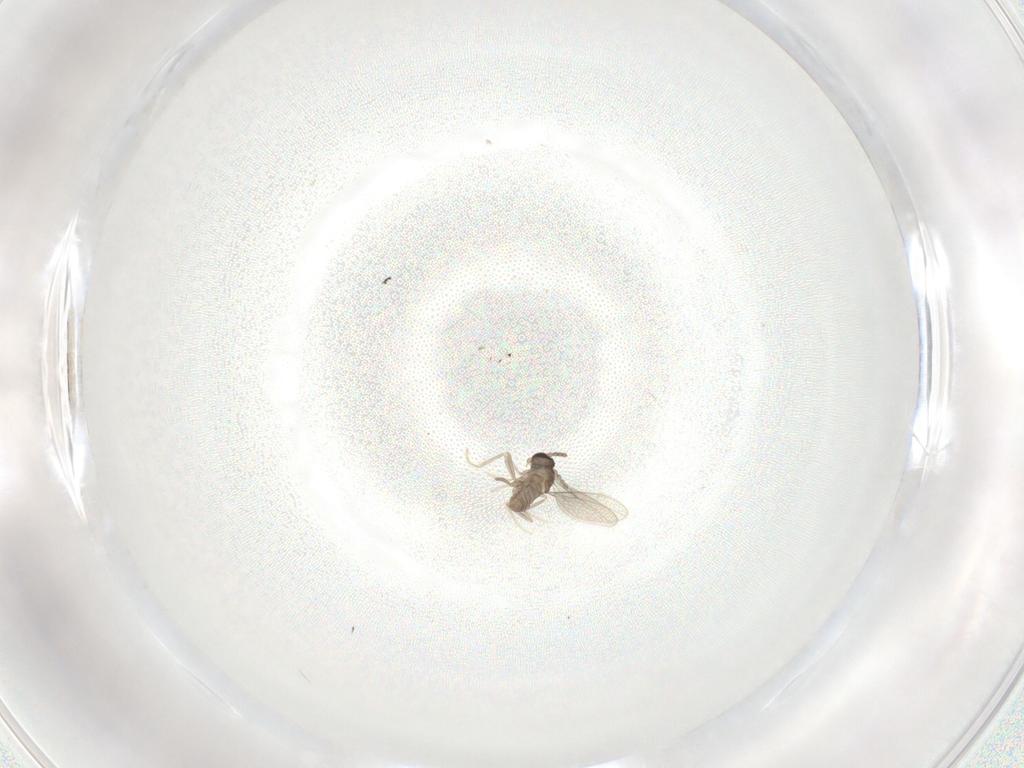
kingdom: Animalia
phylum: Arthropoda
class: Insecta
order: Diptera
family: Cecidomyiidae
